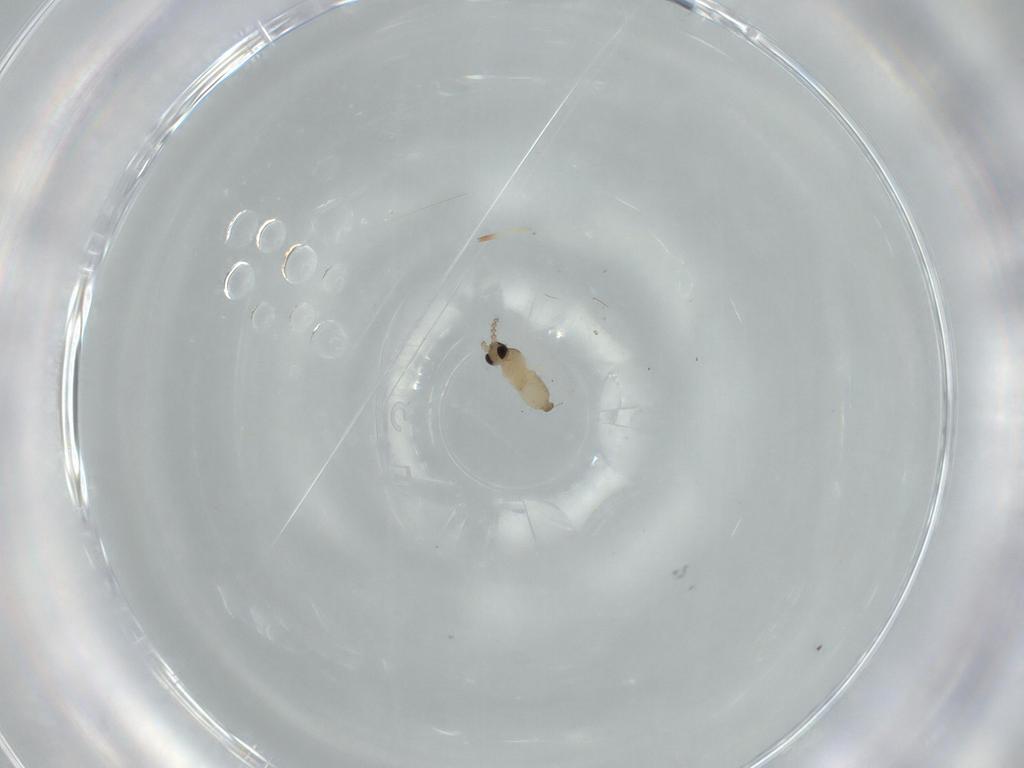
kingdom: Animalia
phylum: Arthropoda
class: Insecta
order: Diptera
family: Cecidomyiidae
